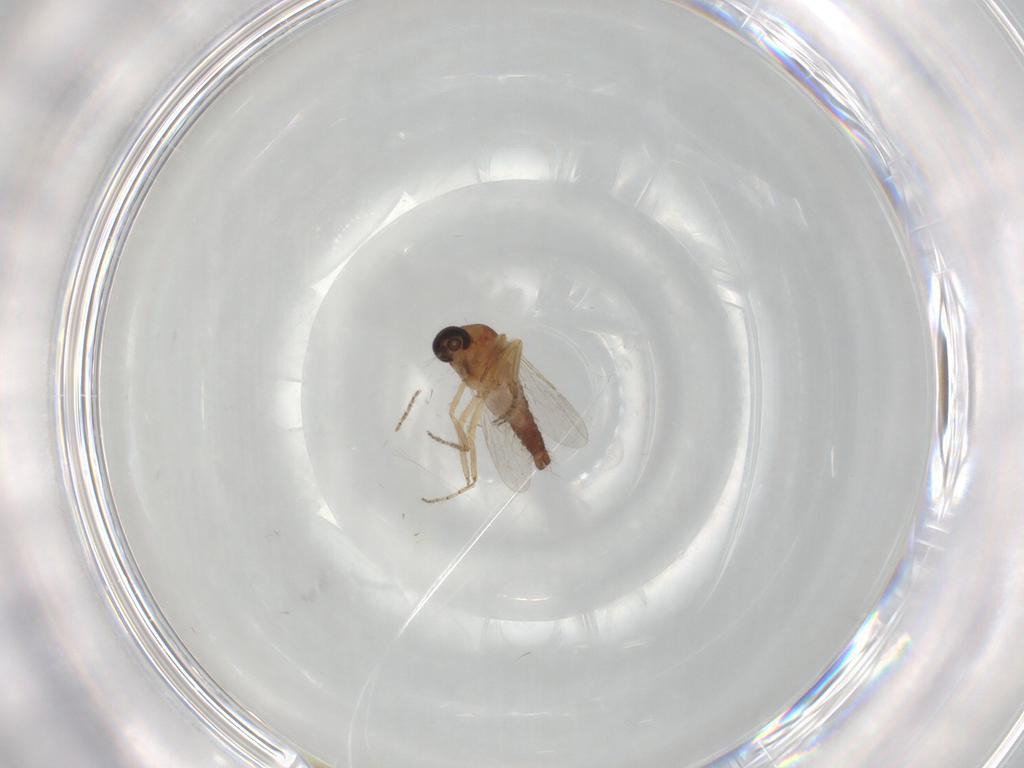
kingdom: Animalia
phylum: Arthropoda
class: Insecta
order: Diptera
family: Ceratopogonidae
